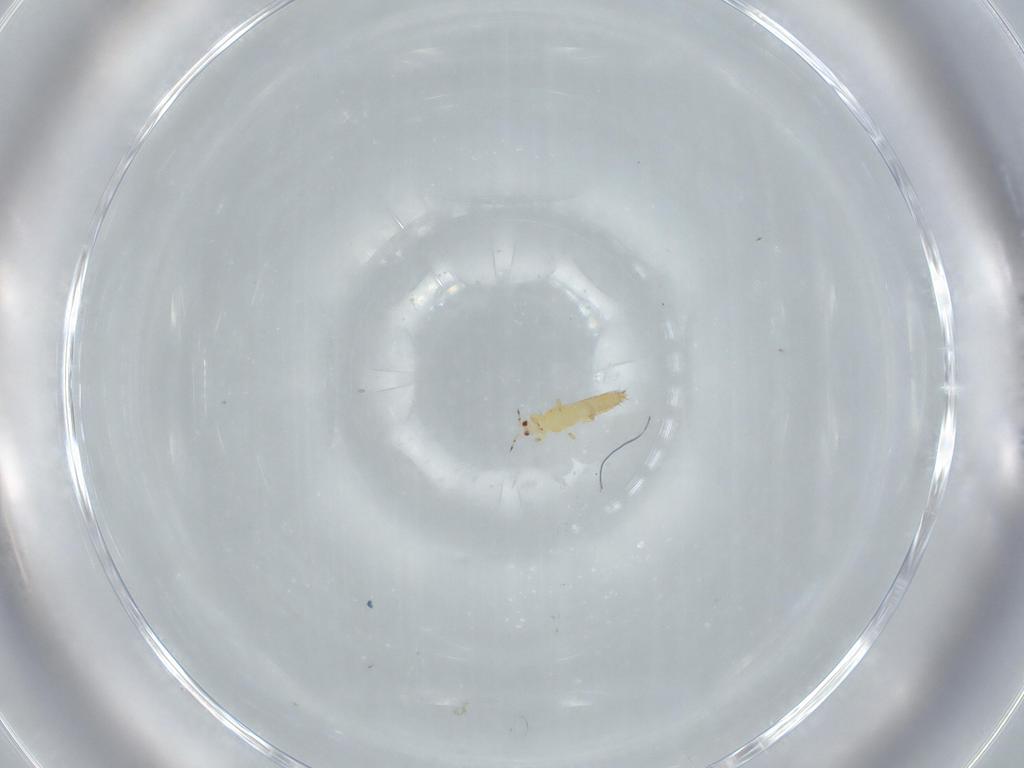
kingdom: Animalia
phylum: Arthropoda
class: Insecta
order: Thysanoptera
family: Thripidae
